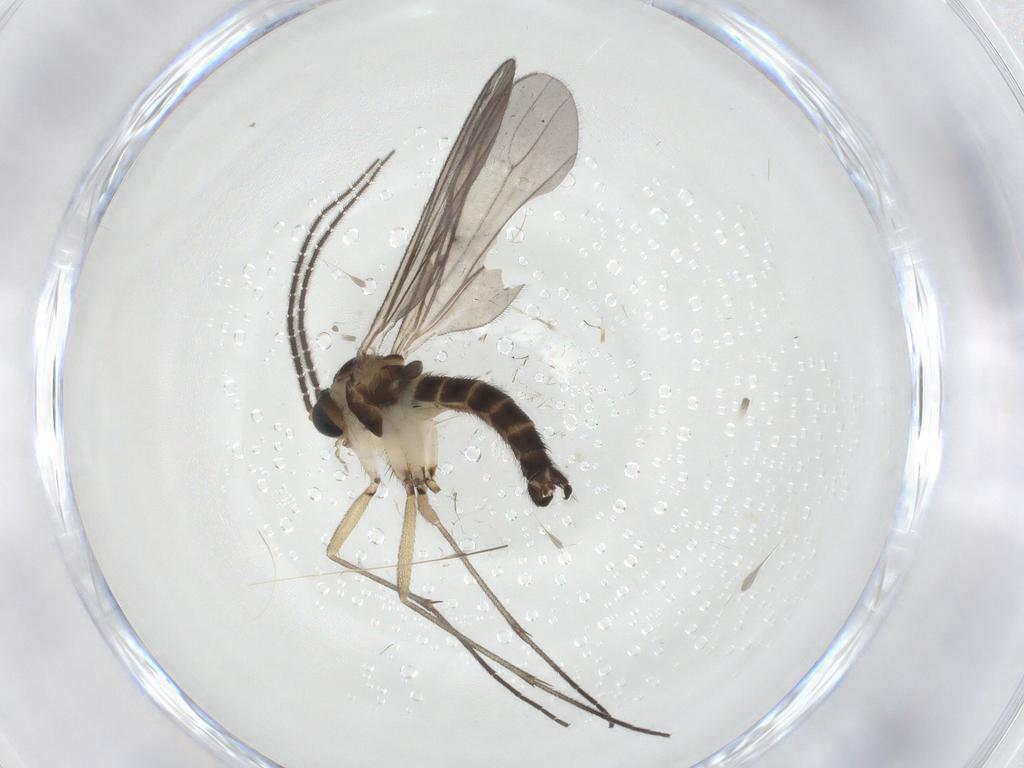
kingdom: Animalia
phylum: Arthropoda
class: Insecta
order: Diptera
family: Sciaridae
